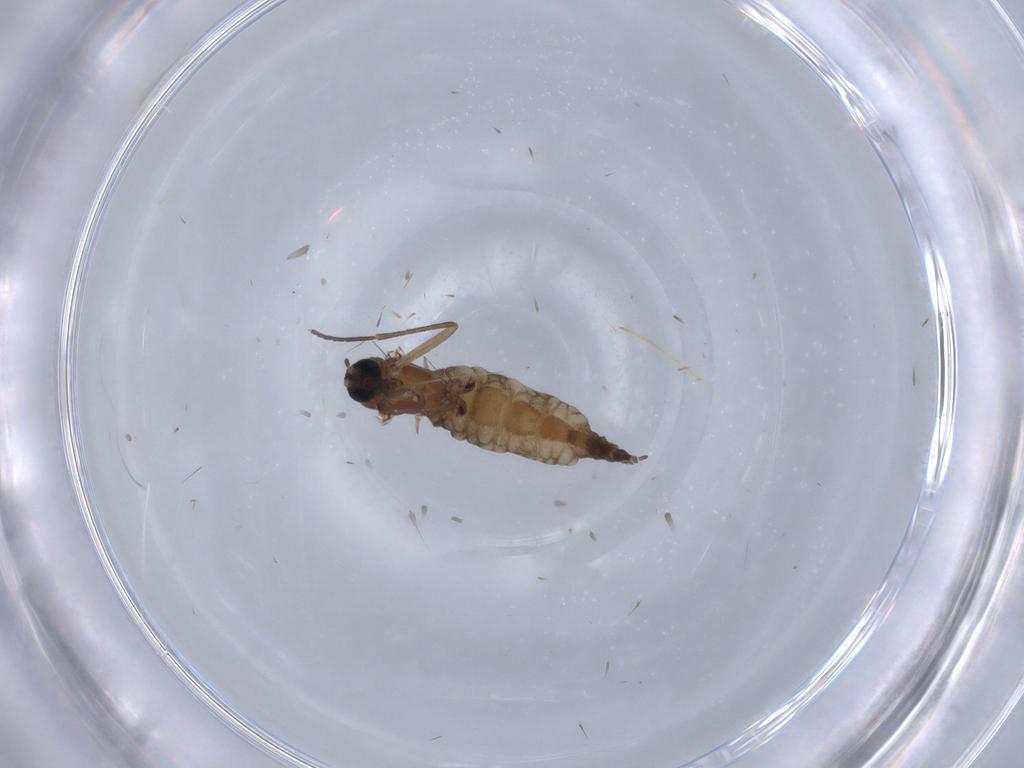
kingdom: Animalia
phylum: Arthropoda
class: Insecta
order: Diptera
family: Sciaridae
